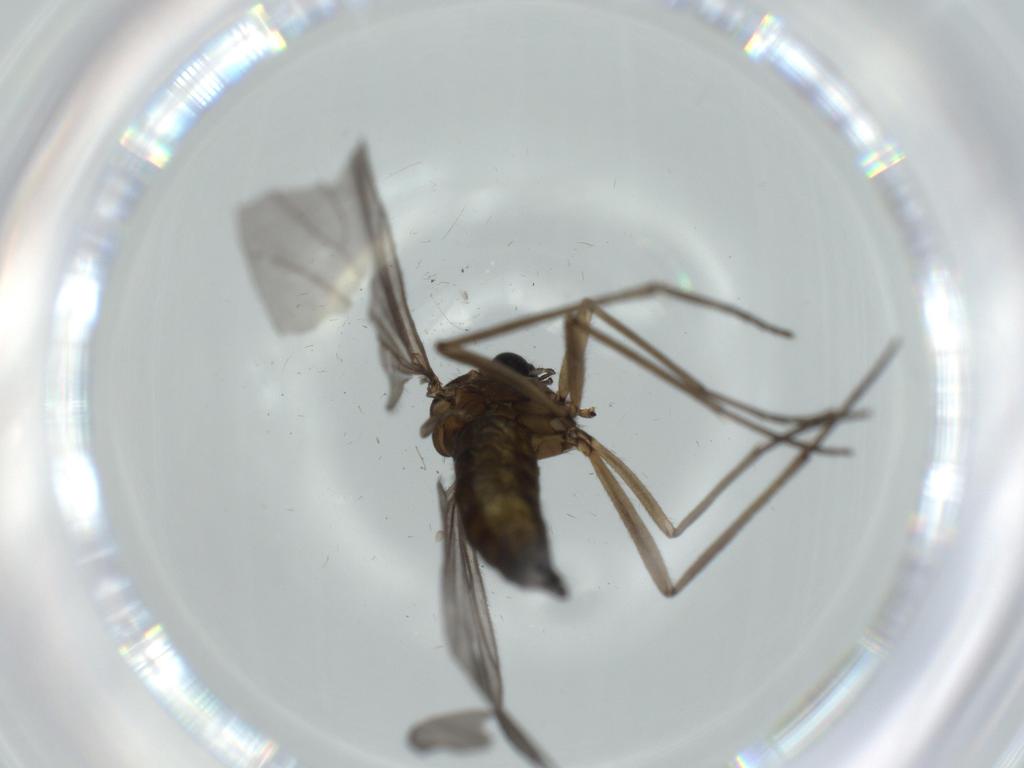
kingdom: Animalia
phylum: Arthropoda
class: Insecta
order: Diptera
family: Sciaridae
